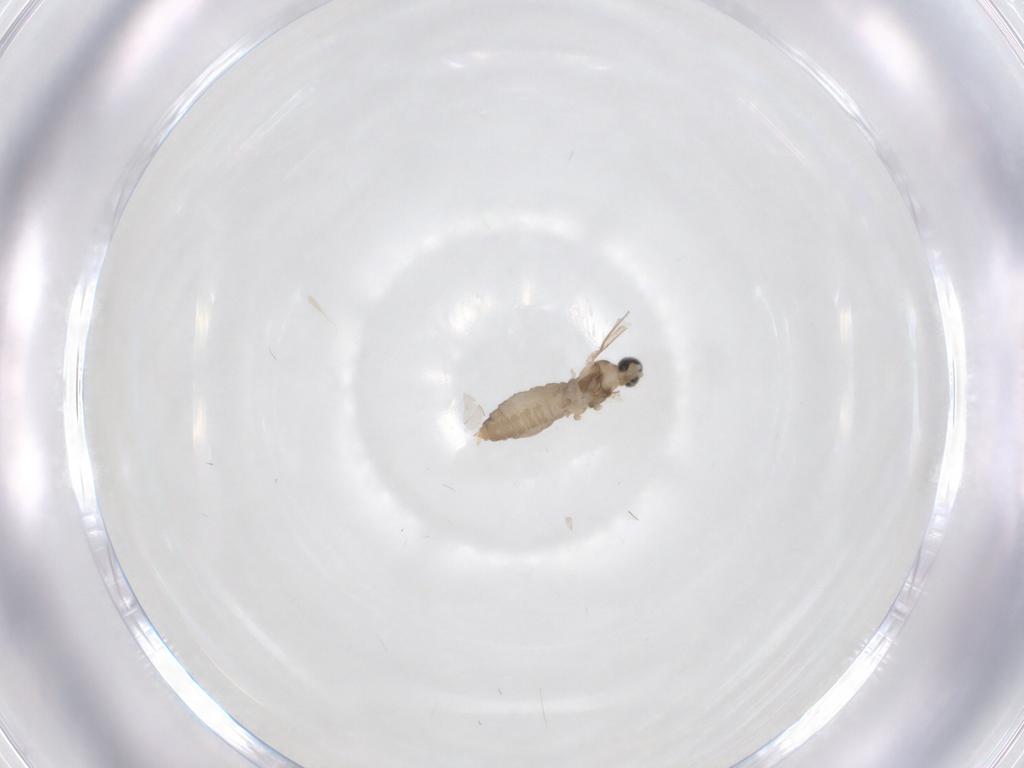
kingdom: Animalia
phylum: Arthropoda
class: Insecta
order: Diptera
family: Cecidomyiidae
